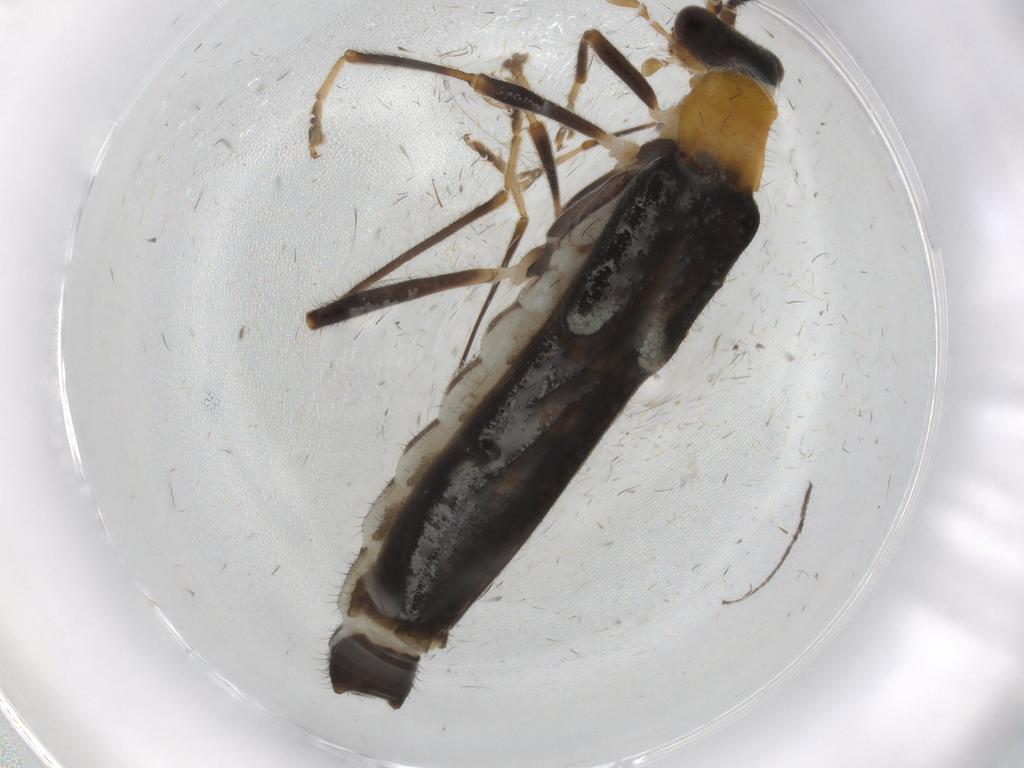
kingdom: Animalia
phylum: Arthropoda
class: Insecta
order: Coleoptera
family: Cantharidae
